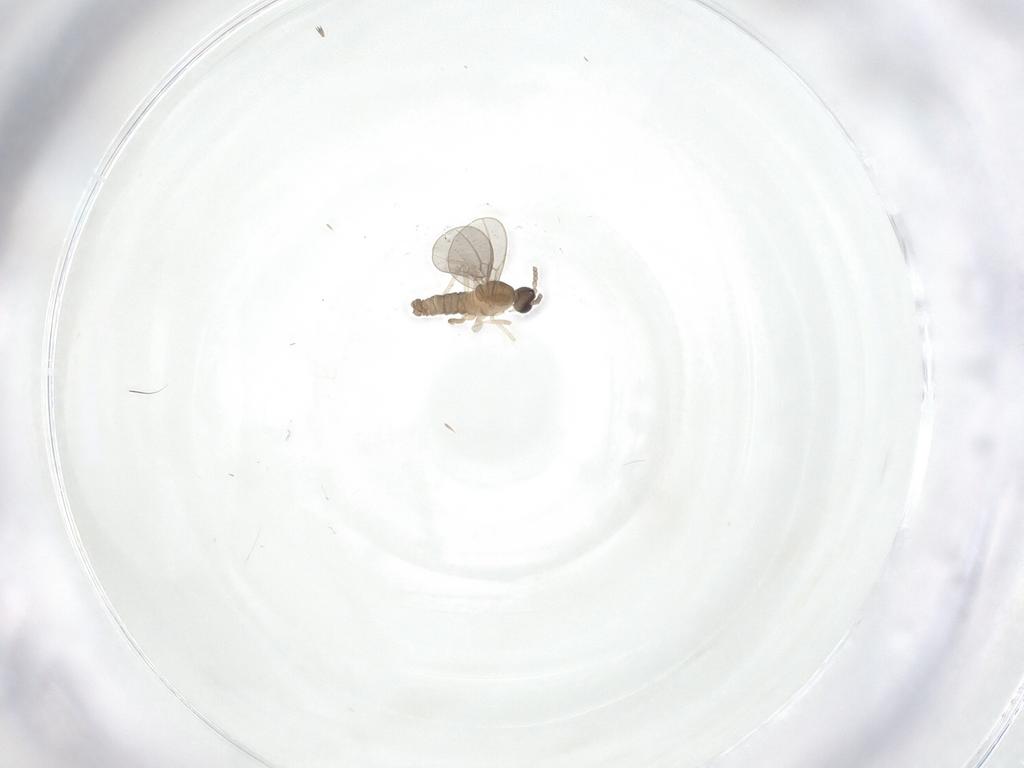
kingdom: Animalia
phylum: Arthropoda
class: Insecta
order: Diptera
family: Cecidomyiidae
